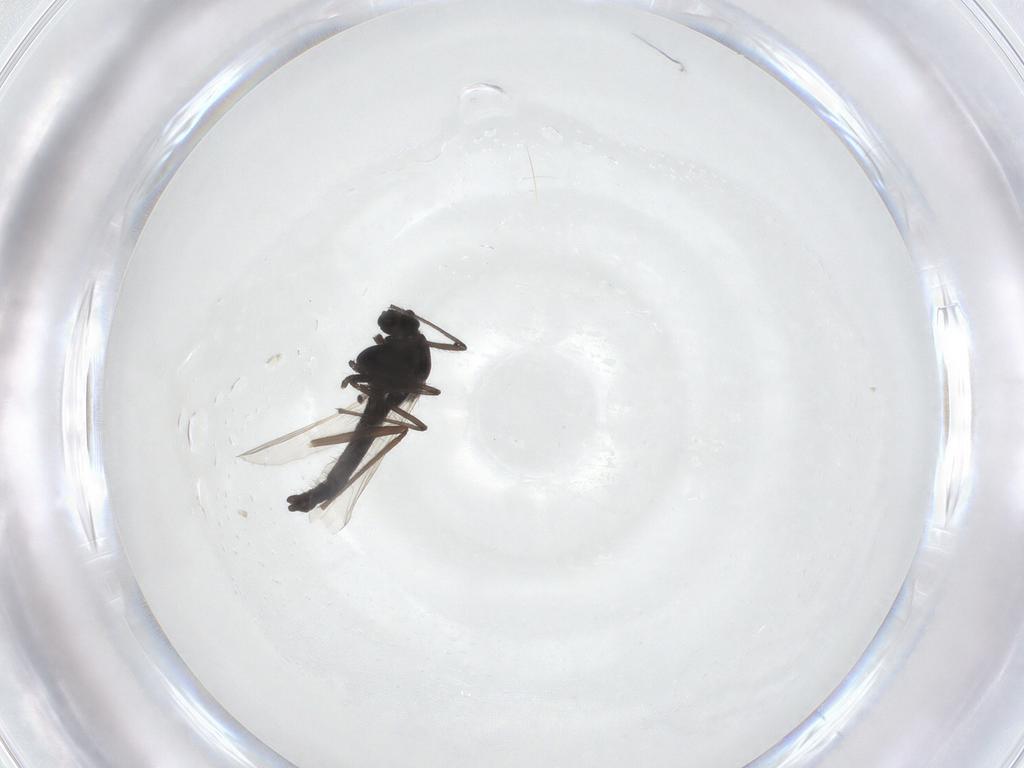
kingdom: Animalia
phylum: Arthropoda
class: Insecta
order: Diptera
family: Chironomidae
